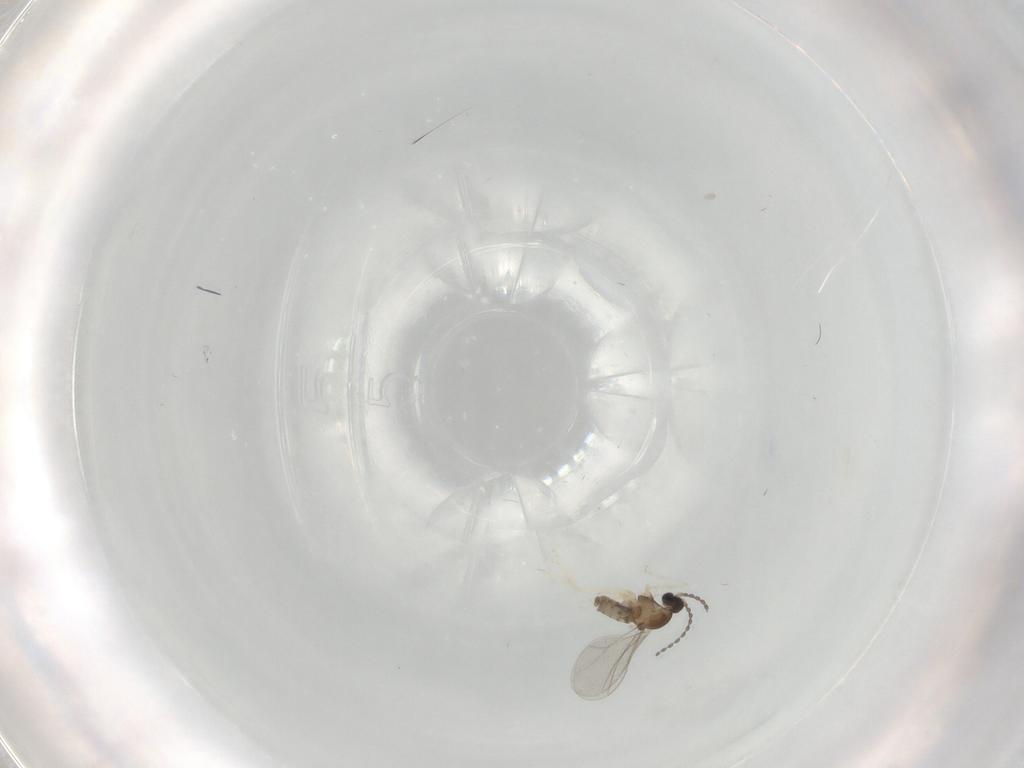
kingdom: Animalia
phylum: Arthropoda
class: Insecta
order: Diptera
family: Cecidomyiidae
